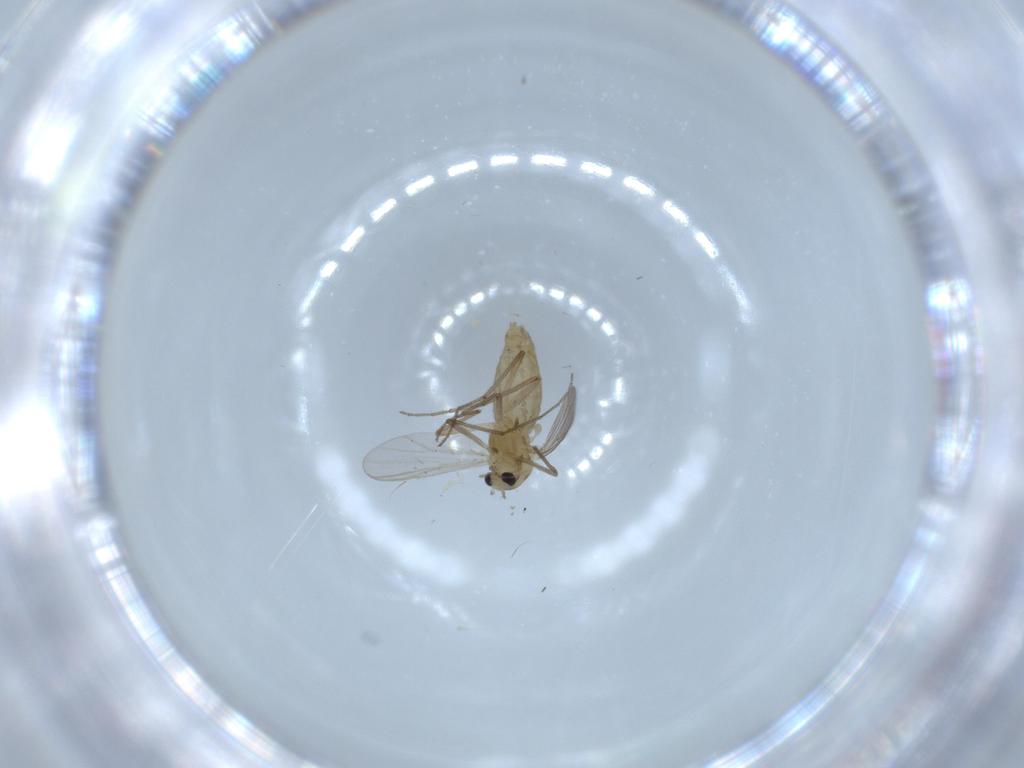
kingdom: Animalia
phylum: Arthropoda
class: Insecta
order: Diptera
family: Chironomidae
